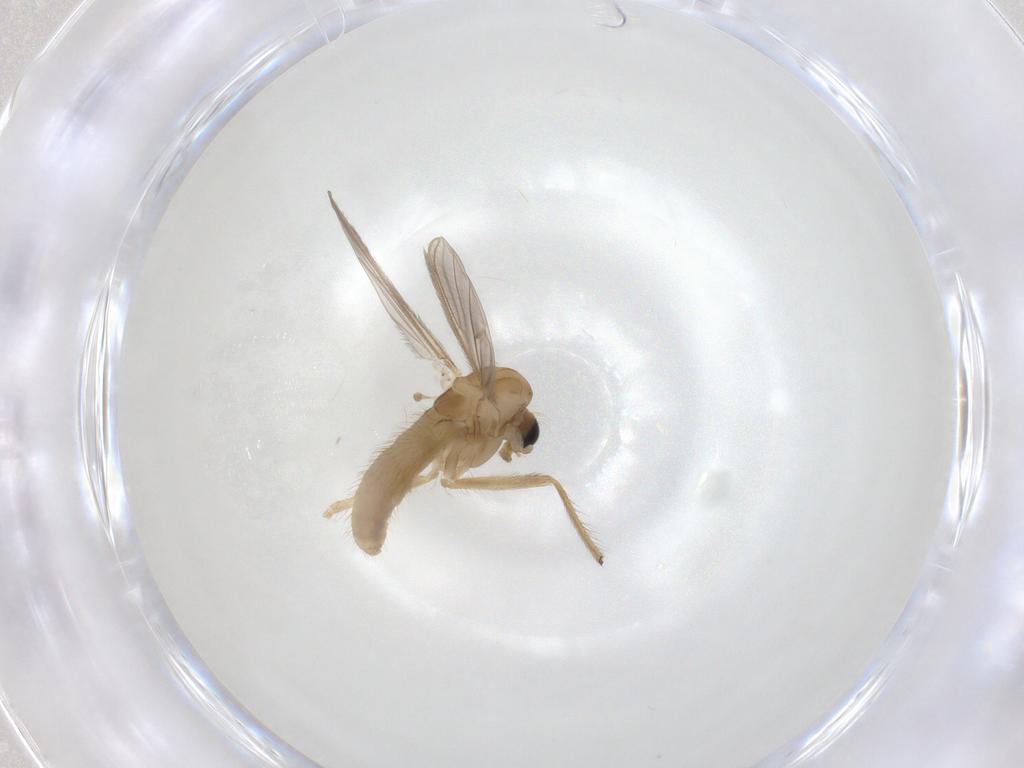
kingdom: Animalia
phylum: Arthropoda
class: Insecta
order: Diptera
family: Chironomidae
